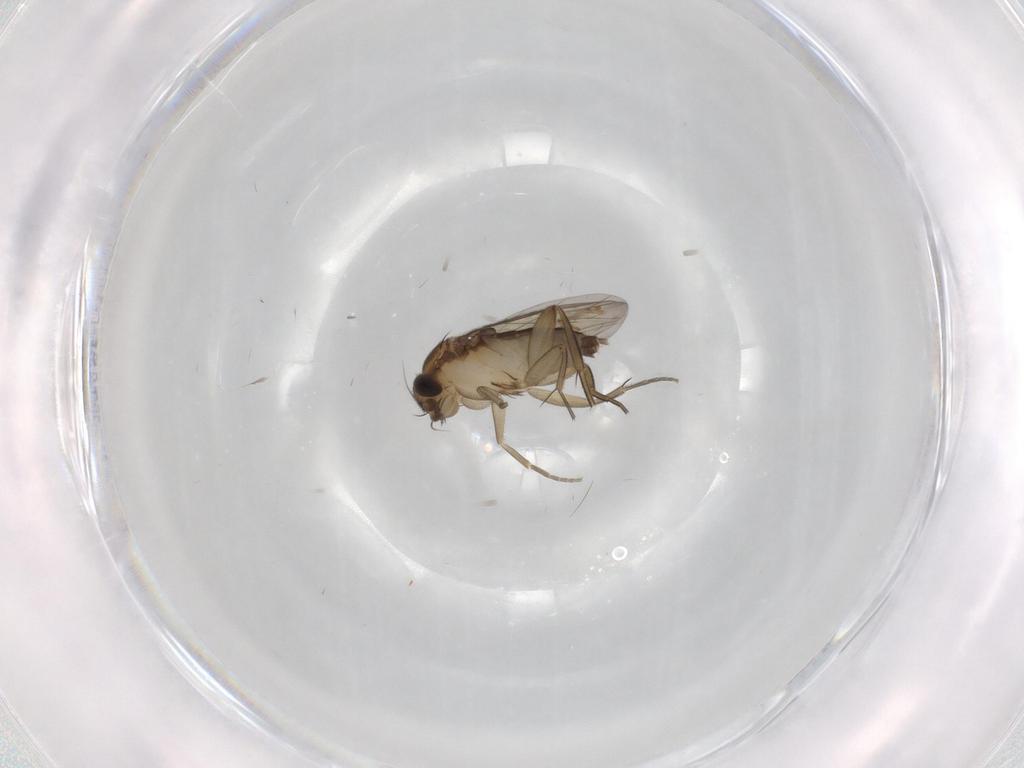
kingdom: Animalia
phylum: Arthropoda
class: Insecta
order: Diptera
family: Phoridae
